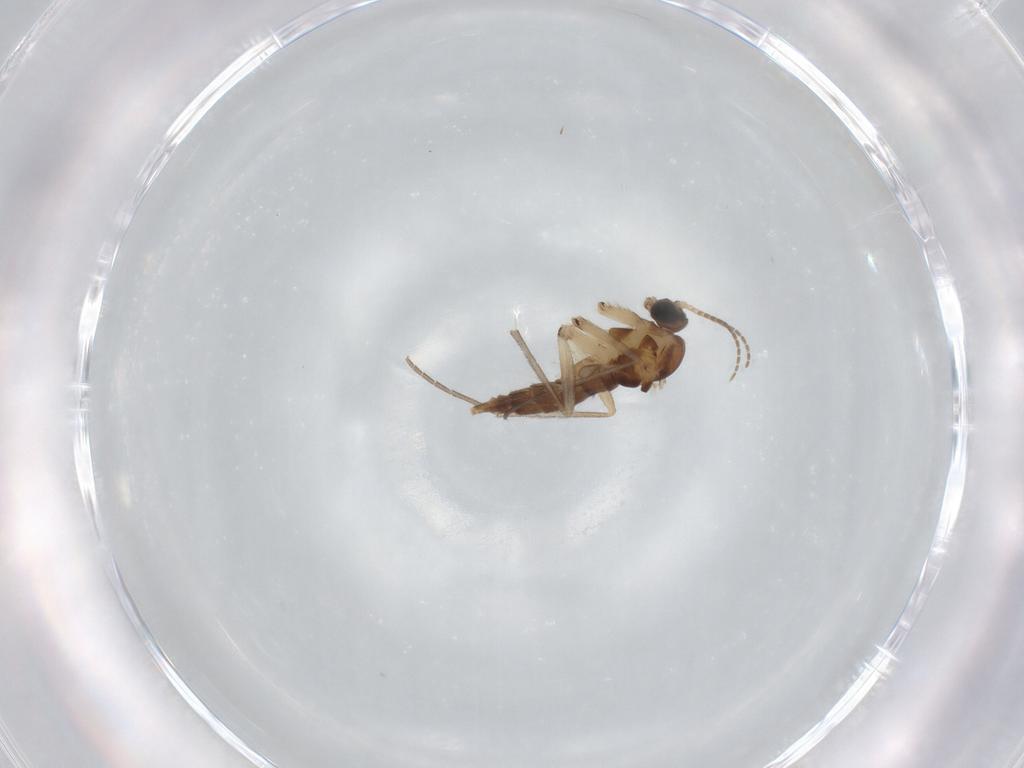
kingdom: Animalia
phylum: Arthropoda
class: Insecta
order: Diptera
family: Sciaridae
